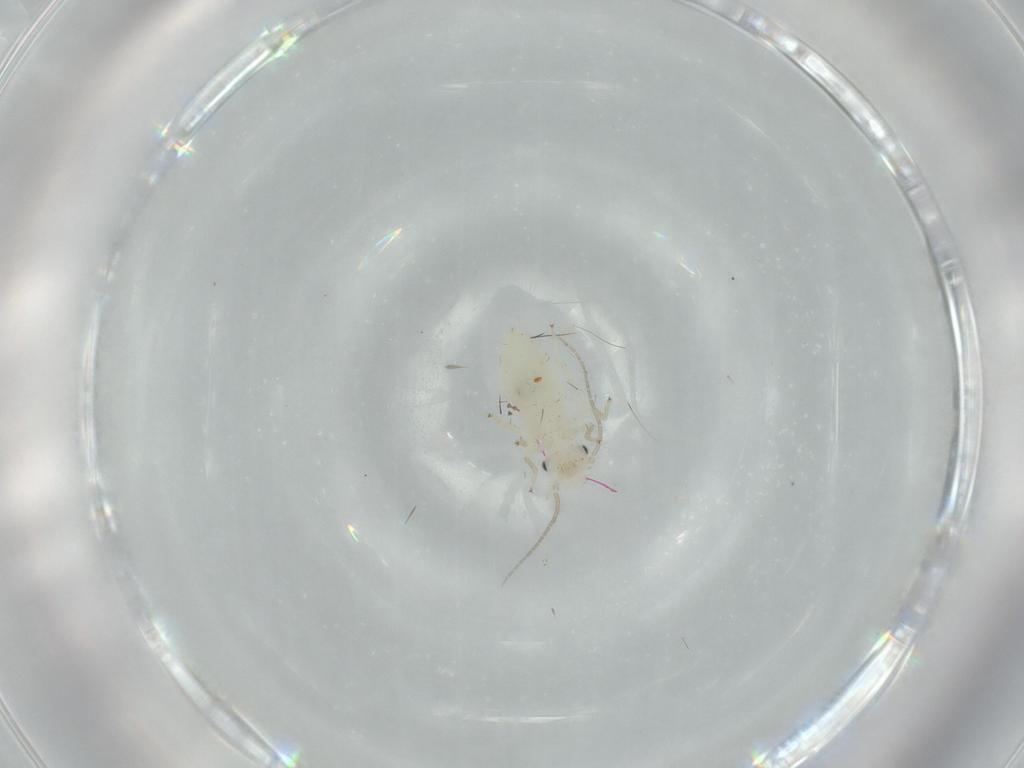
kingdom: Animalia
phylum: Arthropoda
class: Insecta
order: Psocodea
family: Caeciliusidae
